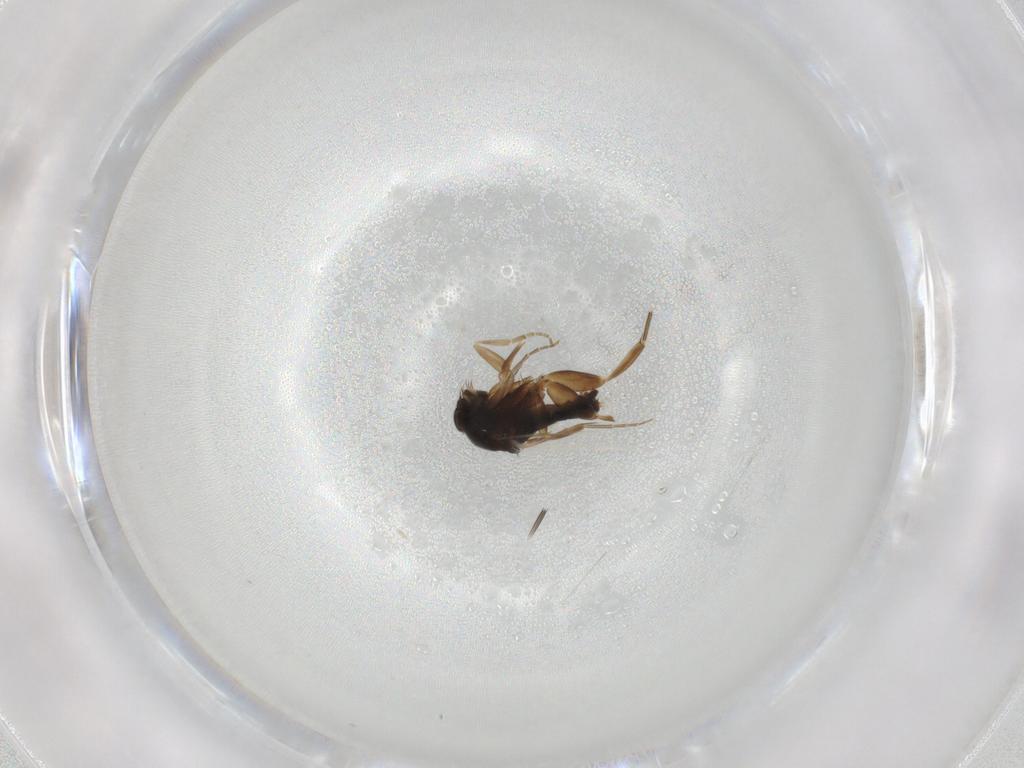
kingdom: Animalia
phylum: Arthropoda
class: Insecta
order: Diptera
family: Phoridae
